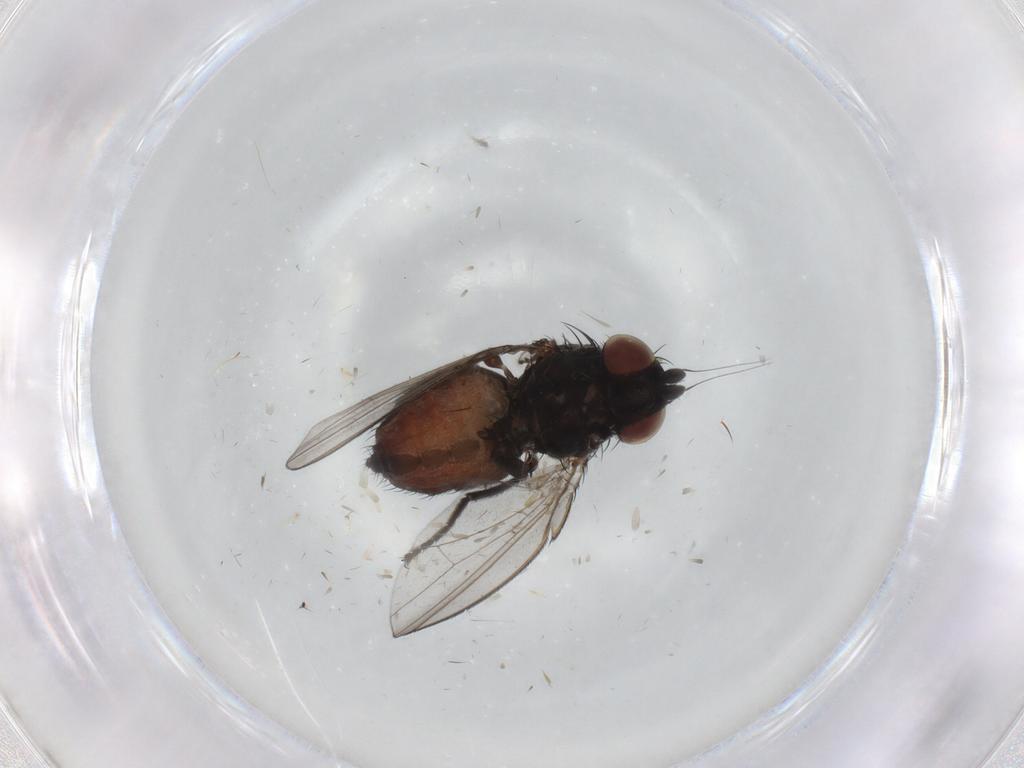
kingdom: Animalia
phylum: Arthropoda
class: Insecta
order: Diptera
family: Milichiidae
